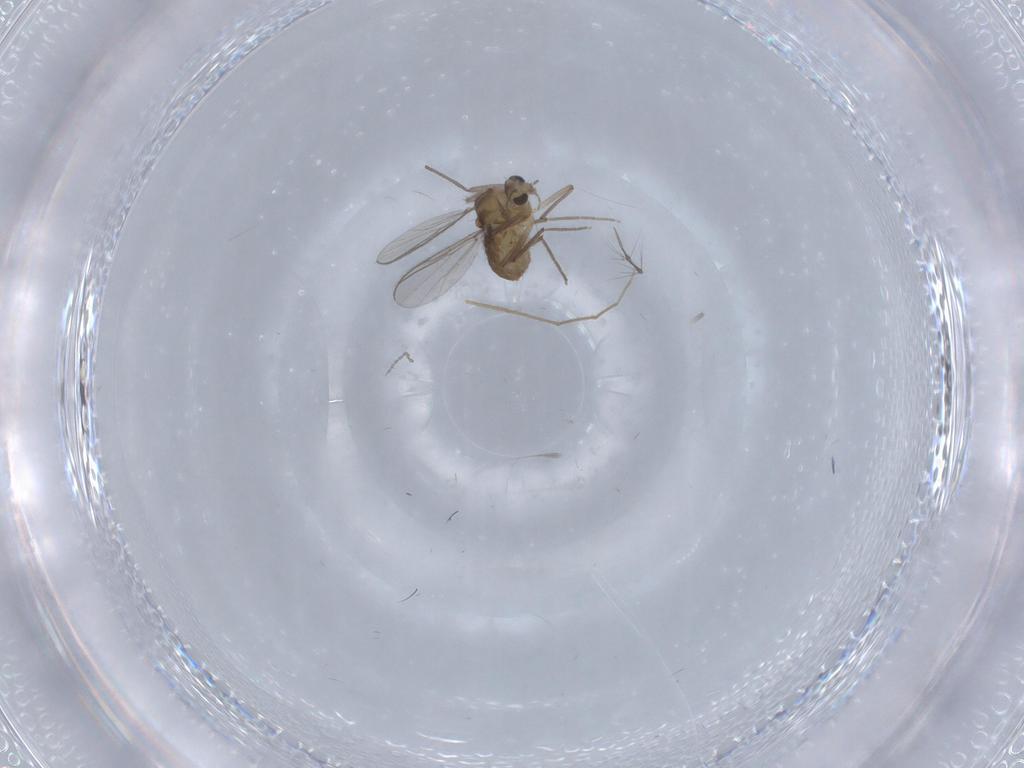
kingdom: Animalia
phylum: Arthropoda
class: Insecta
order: Diptera
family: Chironomidae
